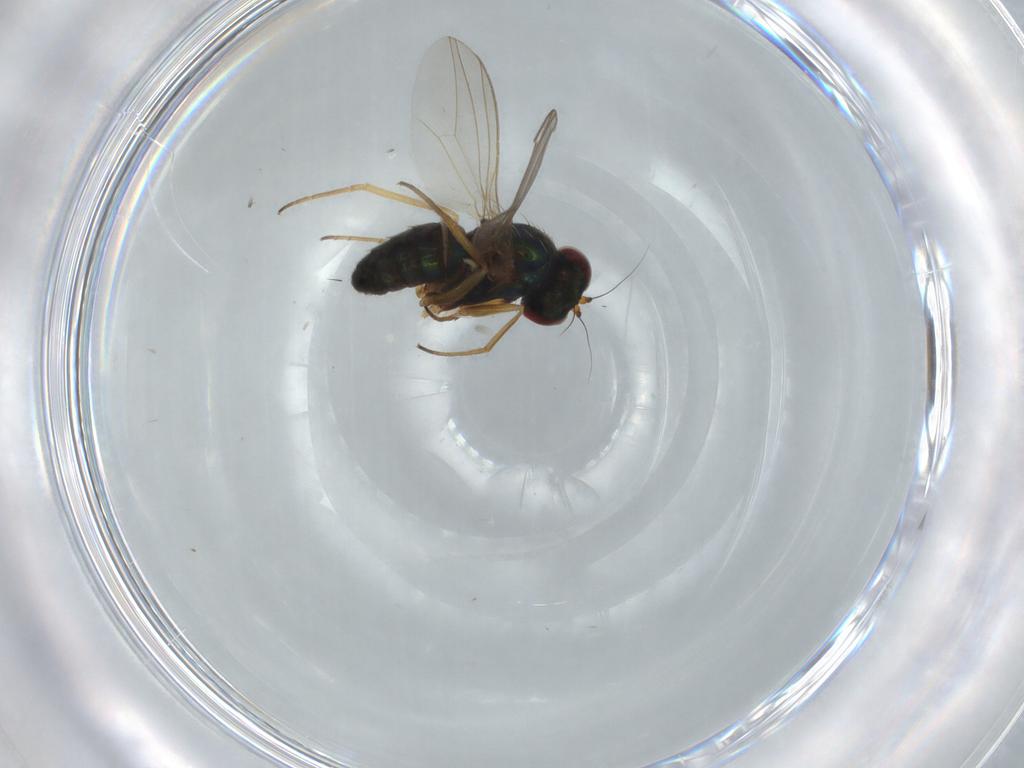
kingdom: Animalia
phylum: Arthropoda
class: Insecta
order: Diptera
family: Dolichopodidae
